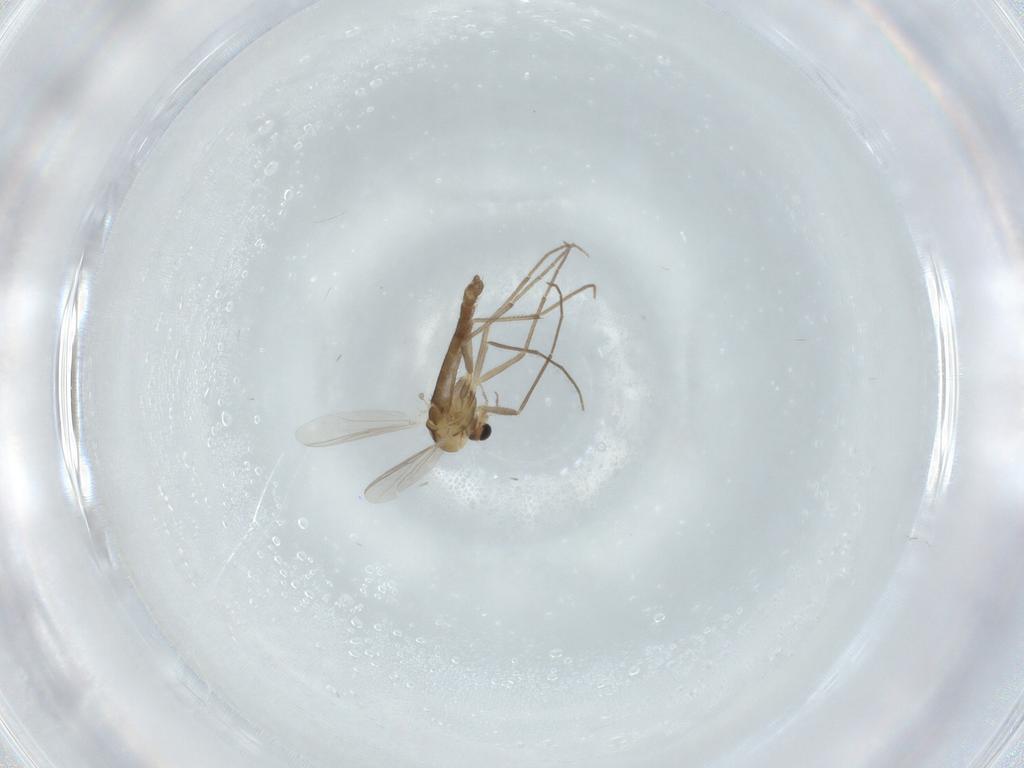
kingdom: Animalia
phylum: Arthropoda
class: Insecta
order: Diptera
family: Chironomidae
